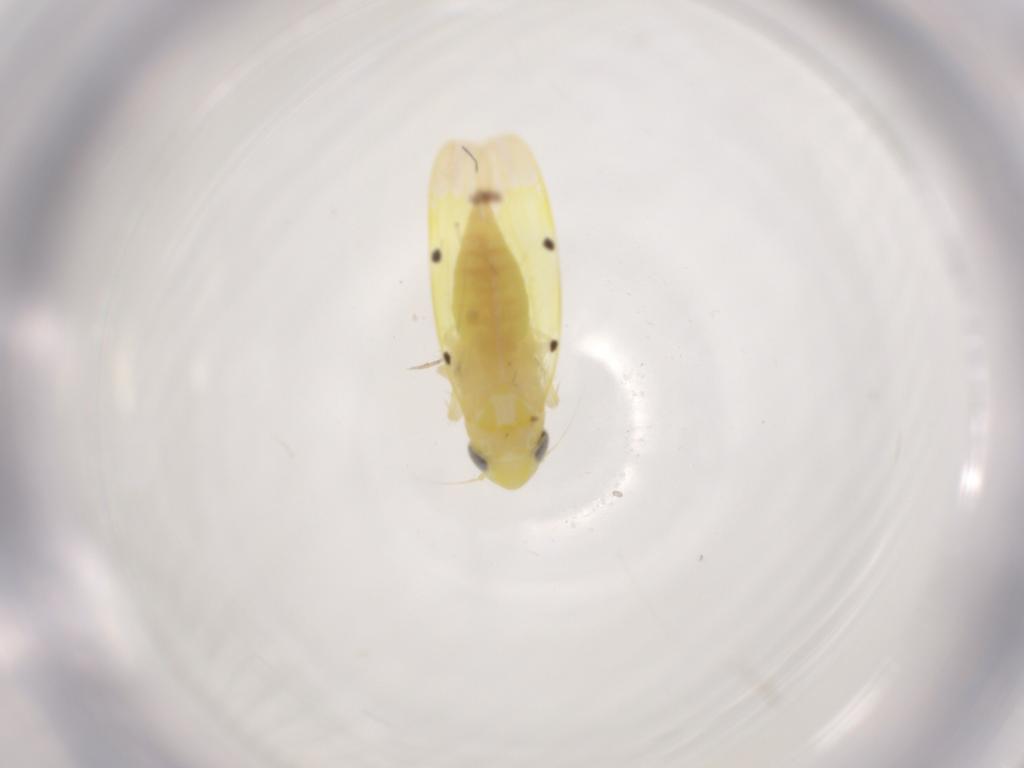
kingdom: Animalia
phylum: Arthropoda
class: Insecta
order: Hemiptera
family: Cicadellidae
